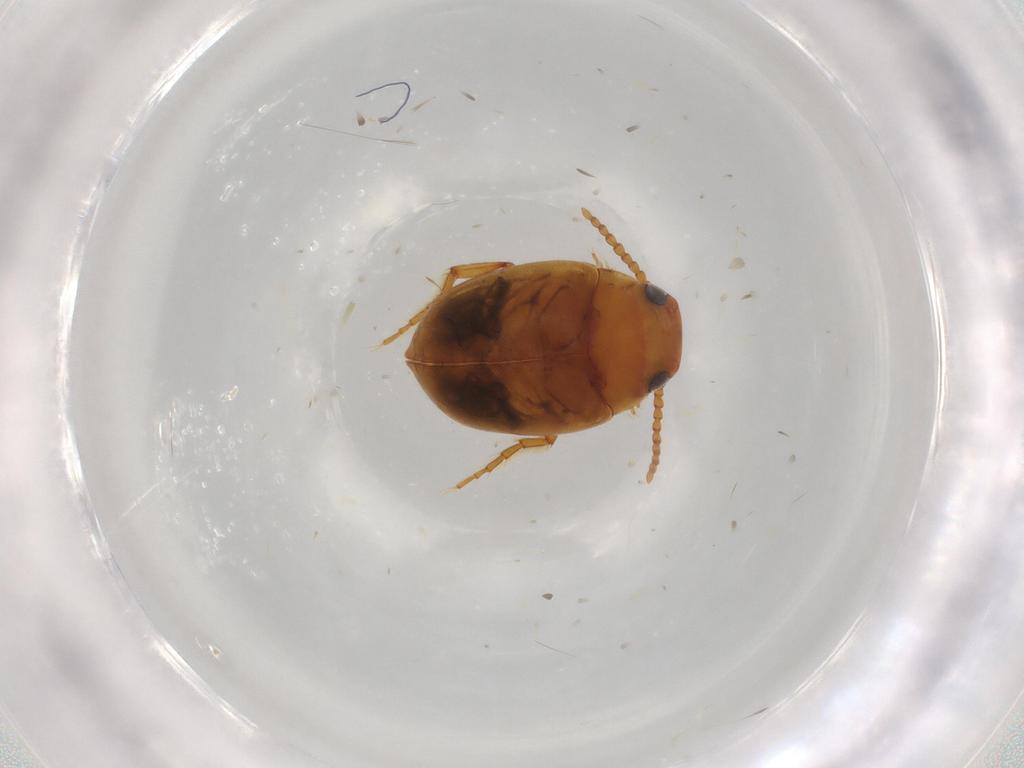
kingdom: Animalia
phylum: Arthropoda
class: Insecta
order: Coleoptera
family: Dytiscidae
